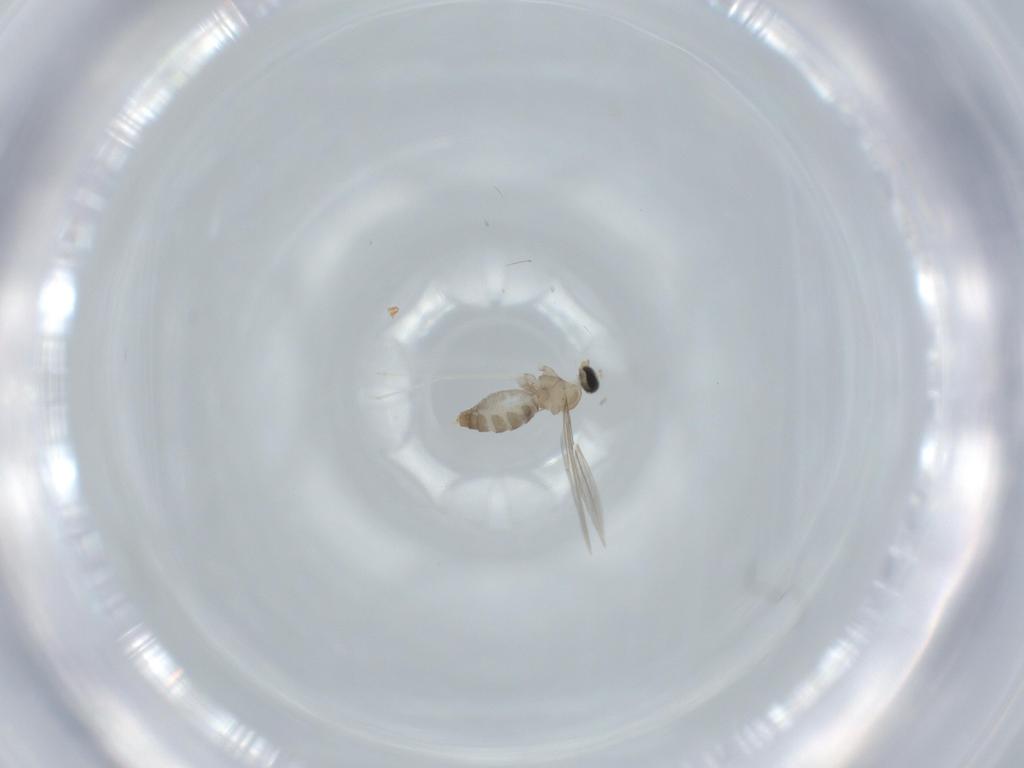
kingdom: Animalia
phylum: Arthropoda
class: Insecta
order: Diptera
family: Cecidomyiidae
